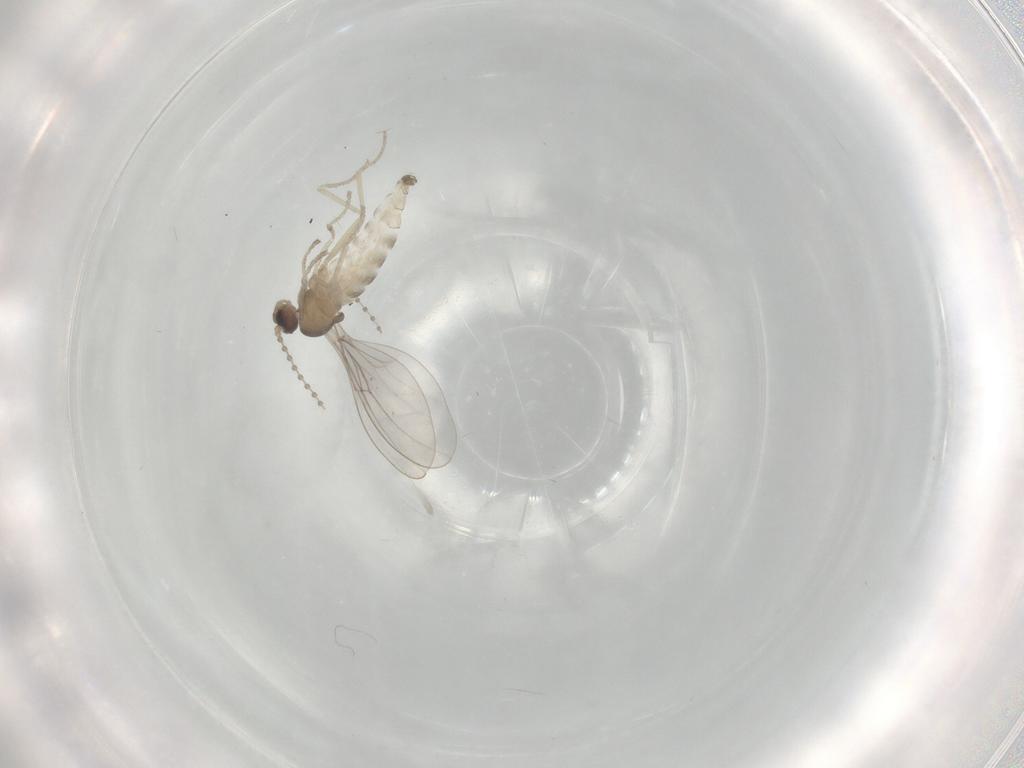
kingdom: Animalia
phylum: Arthropoda
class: Insecta
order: Diptera
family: Cecidomyiidae
